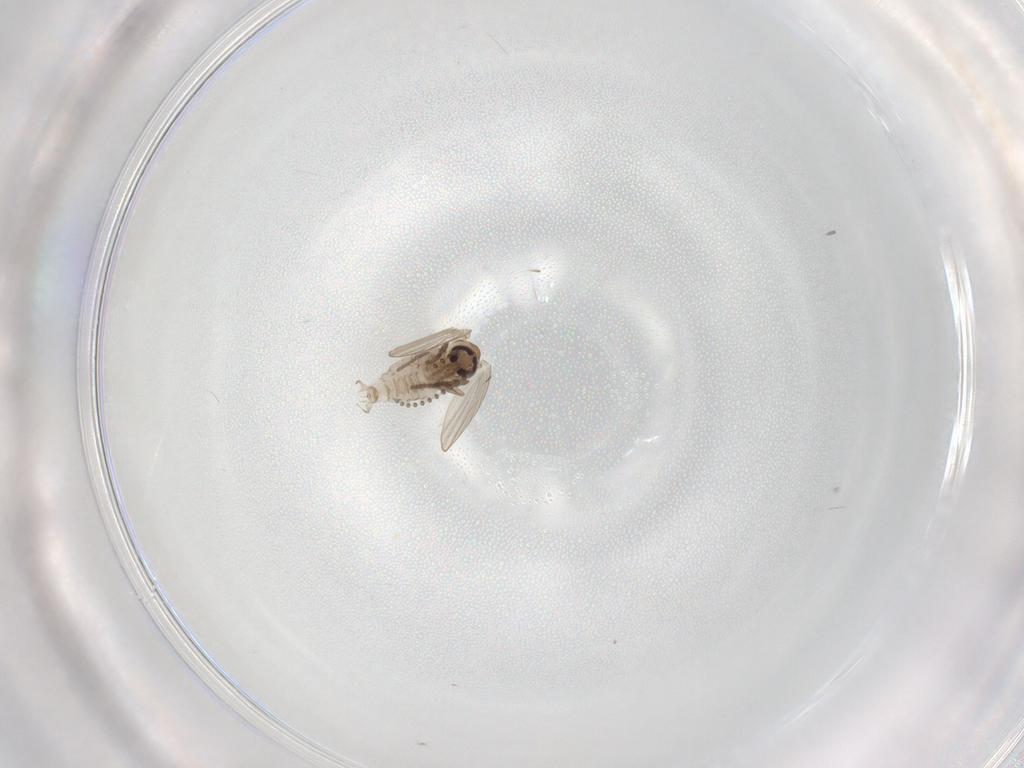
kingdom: Animalia
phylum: Arthropoda
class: Insecta
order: Diptera
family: Psychodidae
